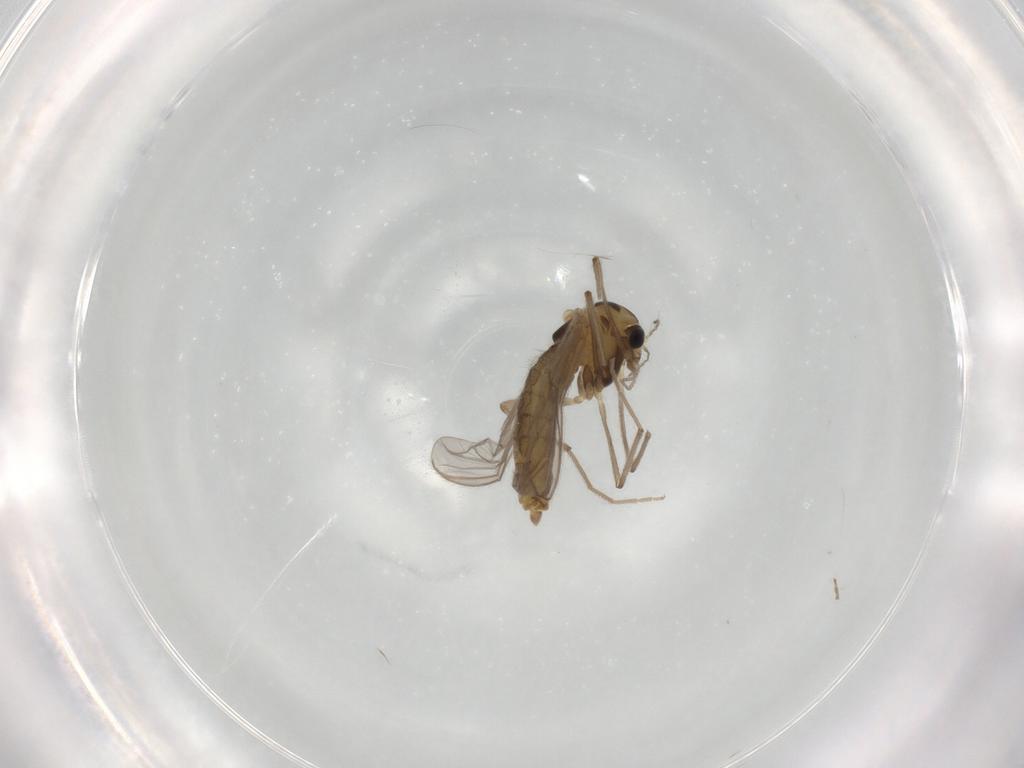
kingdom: Animalia
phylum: Arthropoda
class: Insecta
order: Diptera
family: Chironomidae
